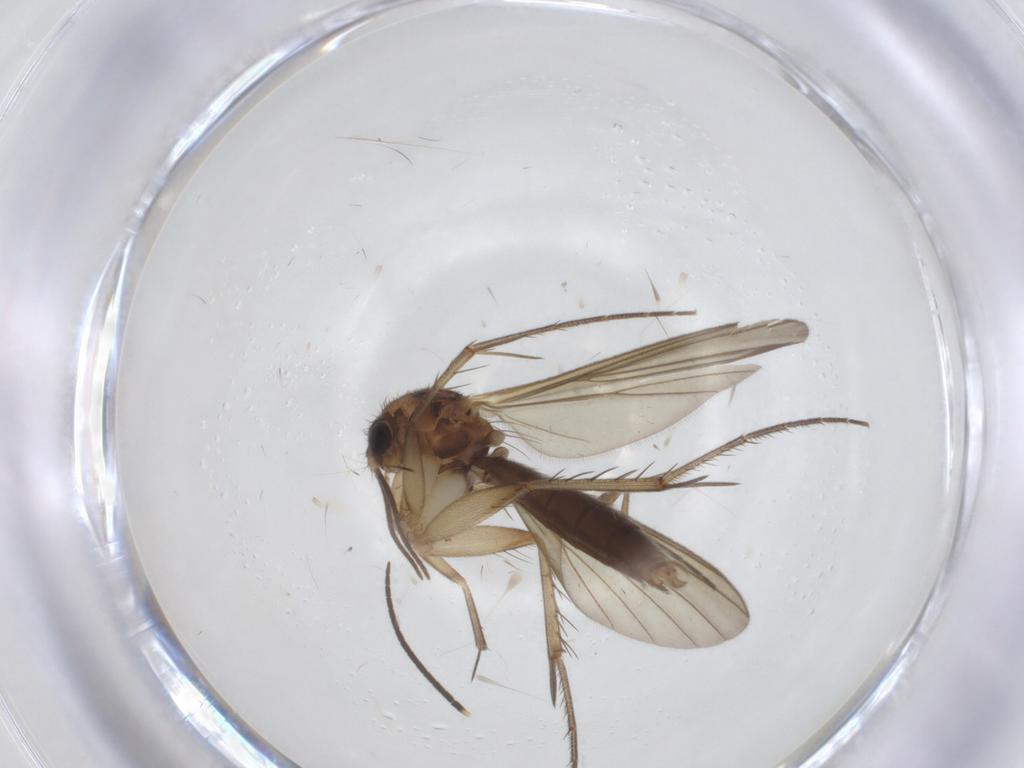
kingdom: Animalia
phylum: Arthropoda
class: Insecta
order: Diptera
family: Mycetophilidae
